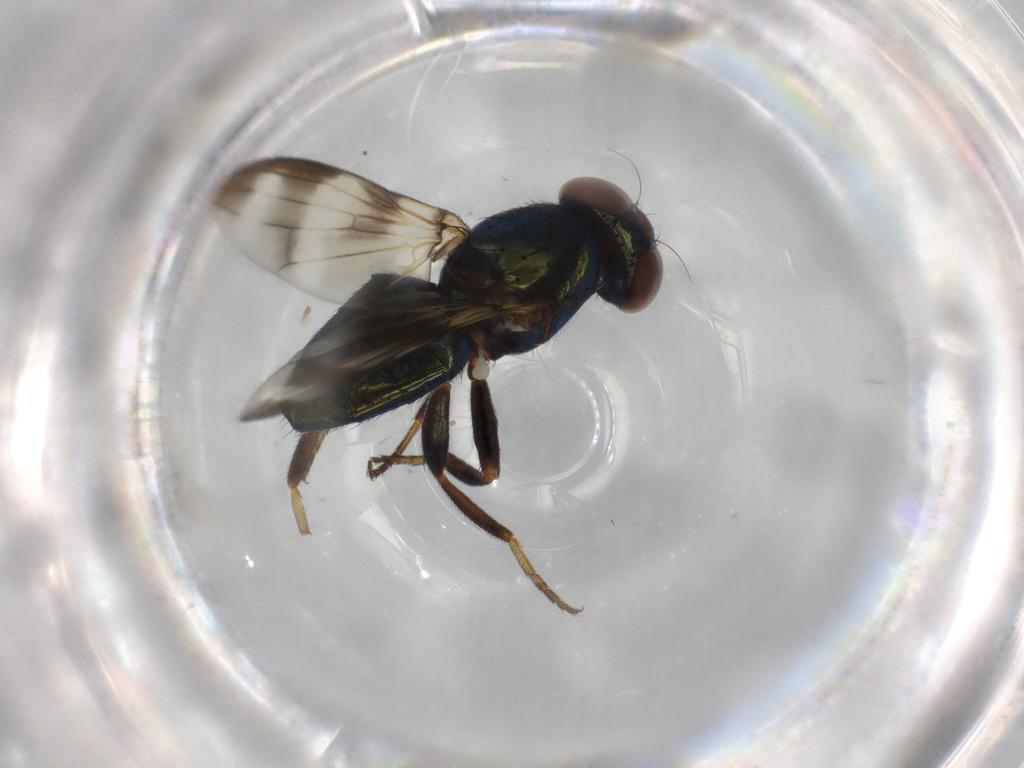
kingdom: Animalia
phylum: Arthropoda
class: Insecta
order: Diptera
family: Ulidiidae
